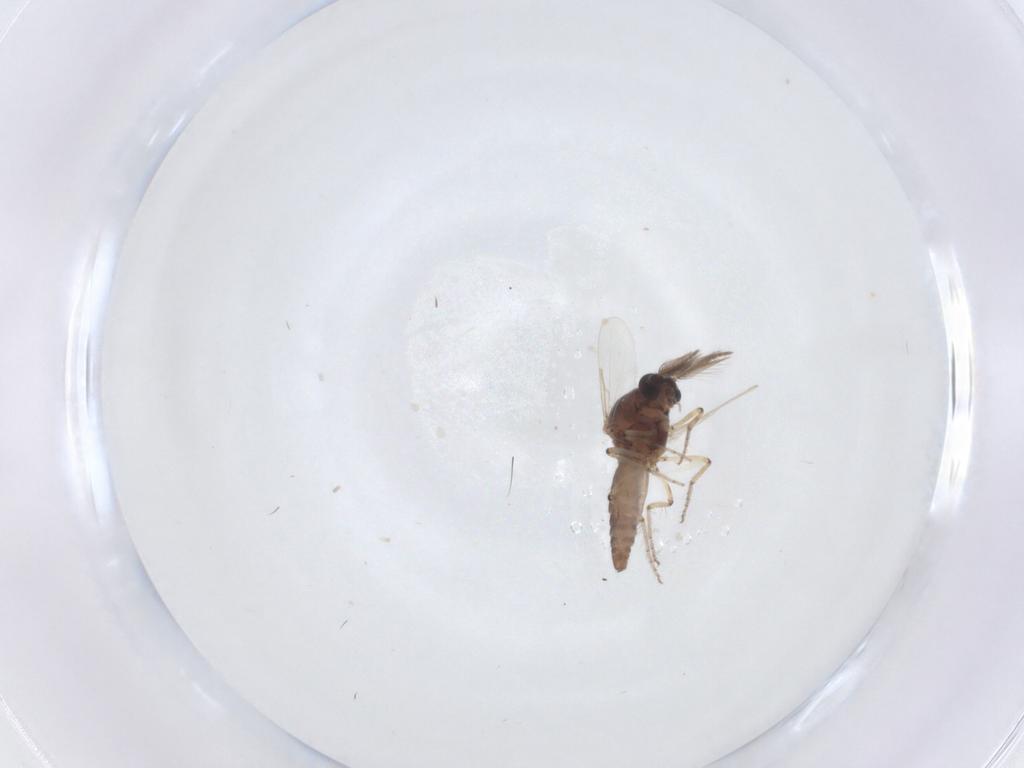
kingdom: Animalia
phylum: Arthropoda
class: Insecta
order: Diptera
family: Ceratopogonidae
